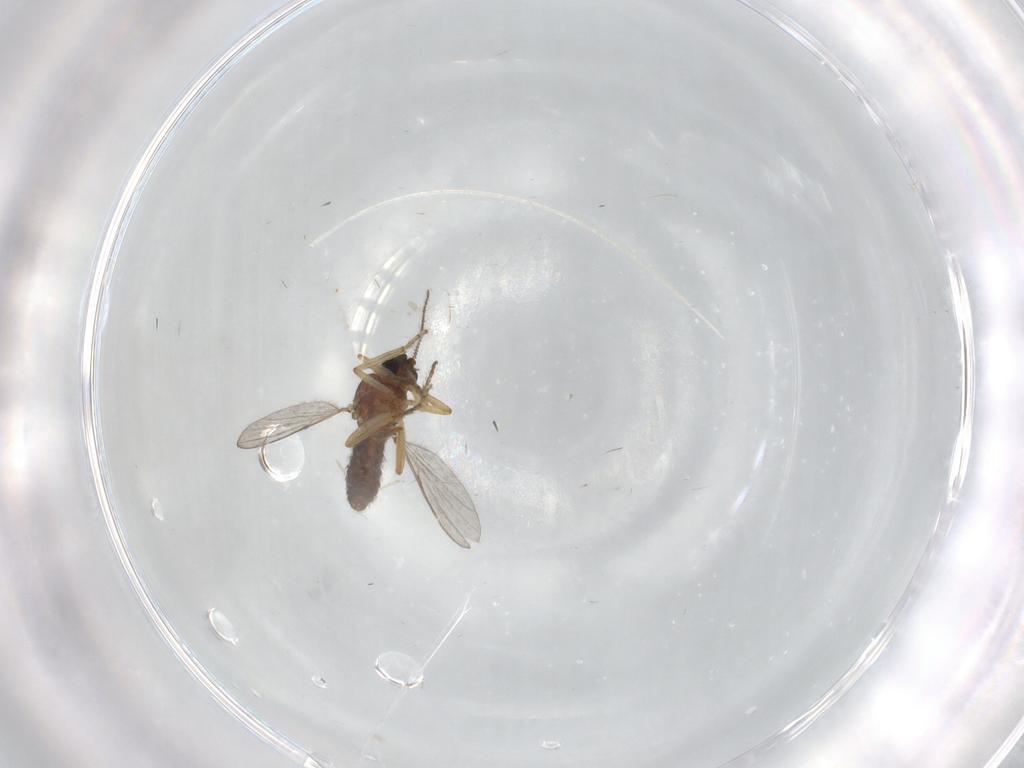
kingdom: Animalia
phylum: Arthropoda
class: Insecta
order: Diptera
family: Ceratopogonidae
